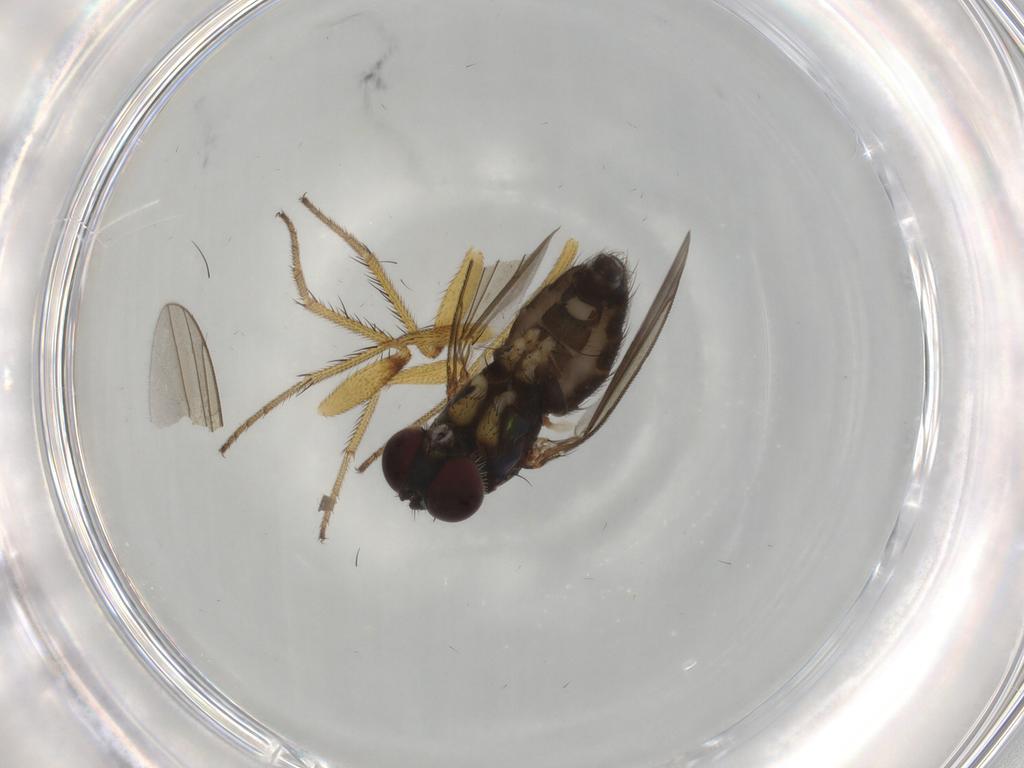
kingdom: Animalia
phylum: Arthropoda
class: Insecta
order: Diptera
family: Dolichopodidae
